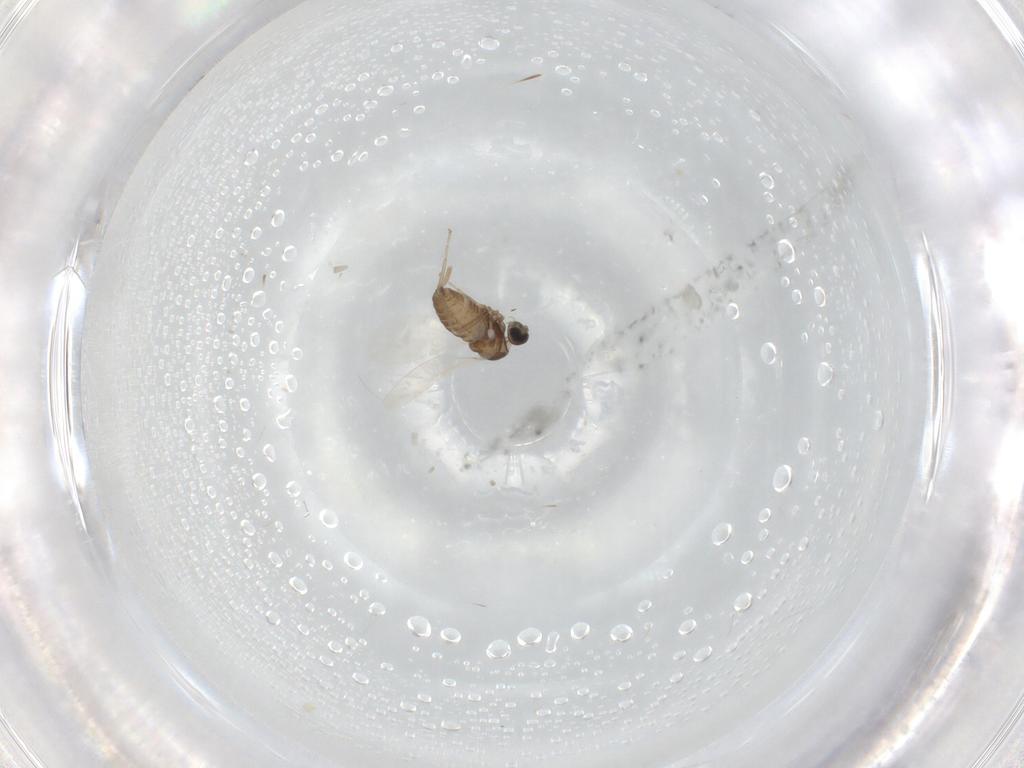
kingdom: Animalia
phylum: Arthropoda
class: Insecta
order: Diptera
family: Cecidomyiidae
